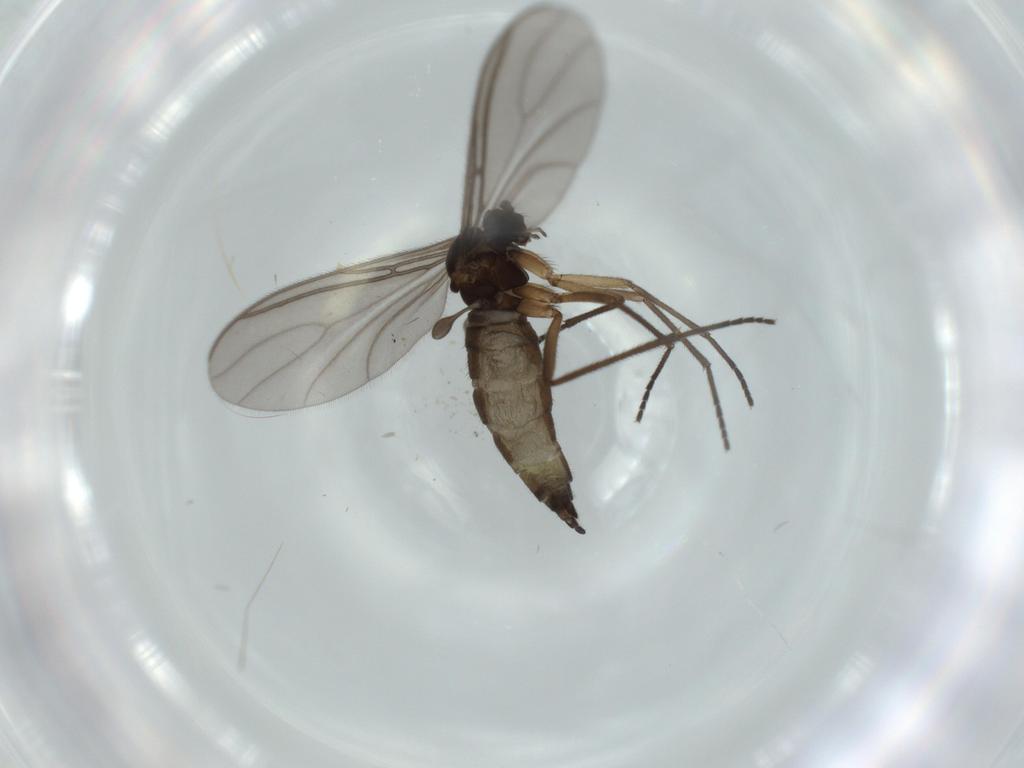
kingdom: Animalia
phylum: Arthropoda
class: Insecta
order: Diptera
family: Sciaridae
